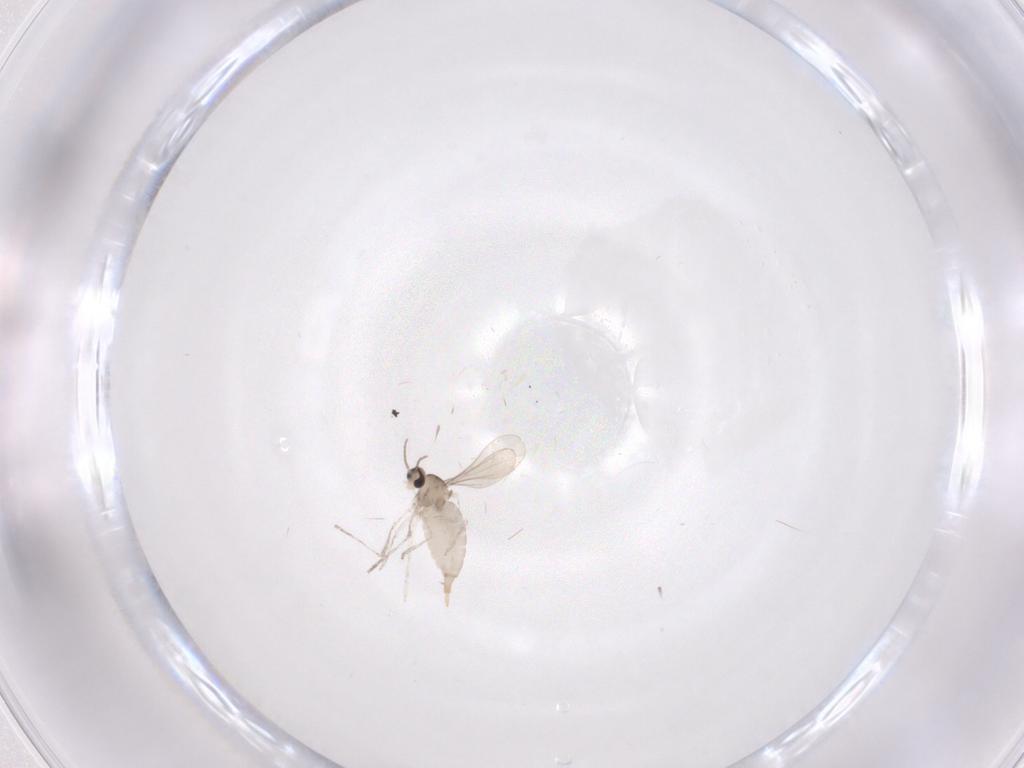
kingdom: Animalia
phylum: Arthropoda
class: Insecta
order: Diptera
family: Cecidomyiidae
